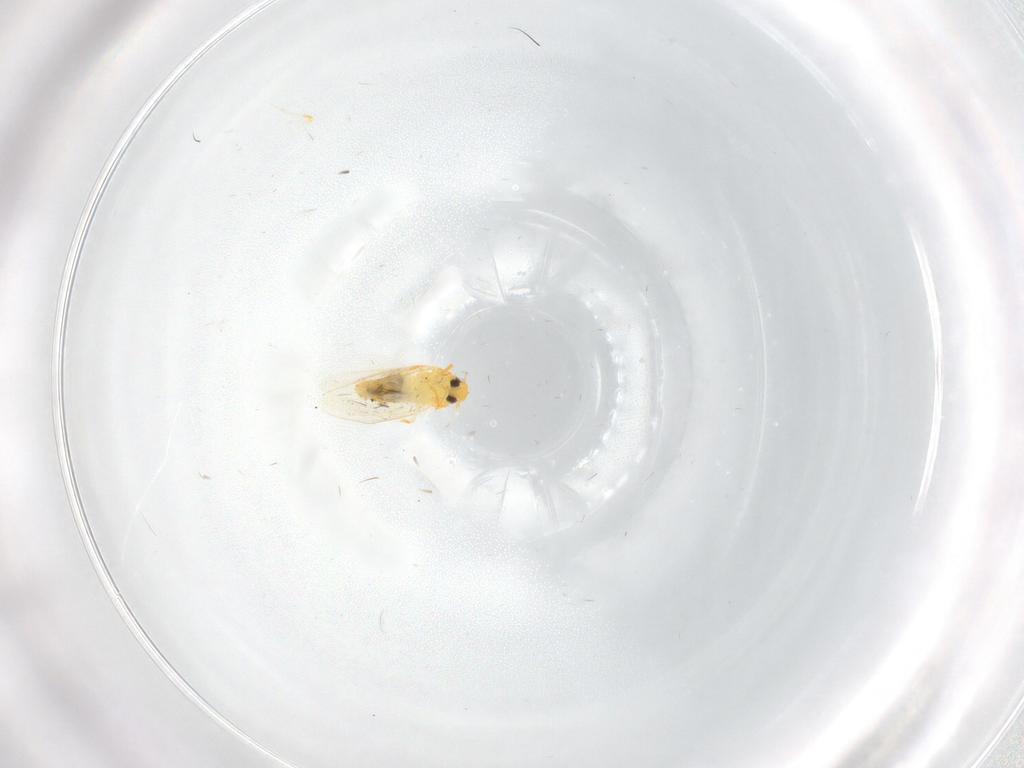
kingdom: Animalia
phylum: Arthropoda
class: Insecta
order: Hemiptera
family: Cicadellidae
